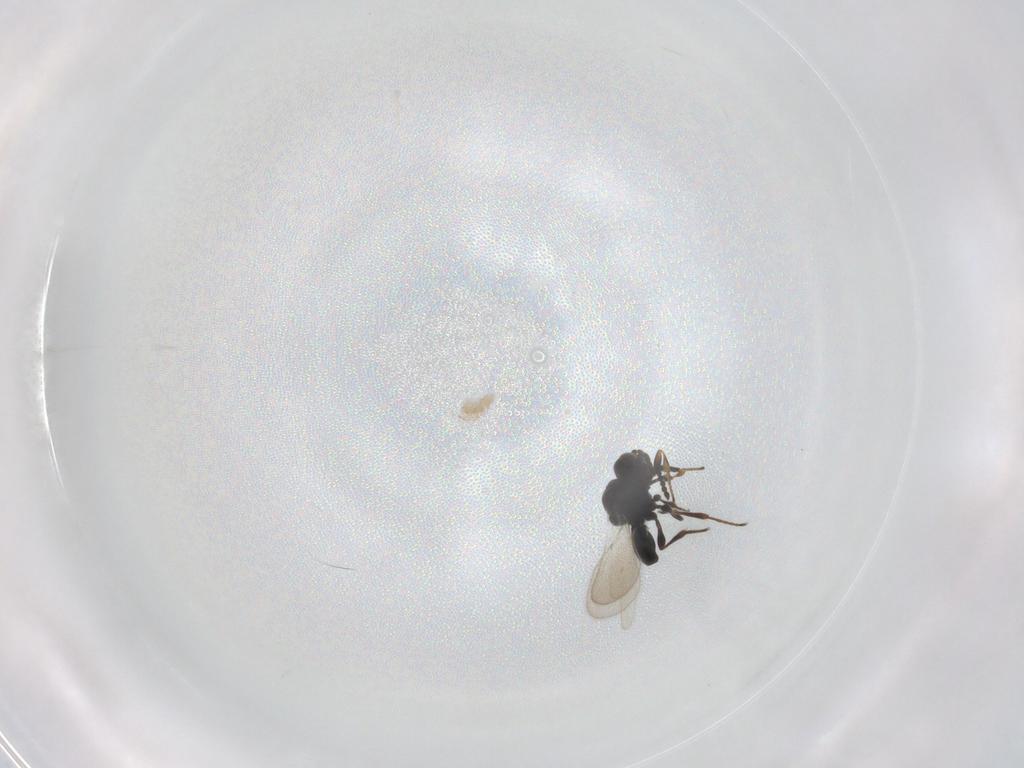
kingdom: Animalia
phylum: Arthropoda
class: Insecta
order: Hymenoptera
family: Platygastridae
